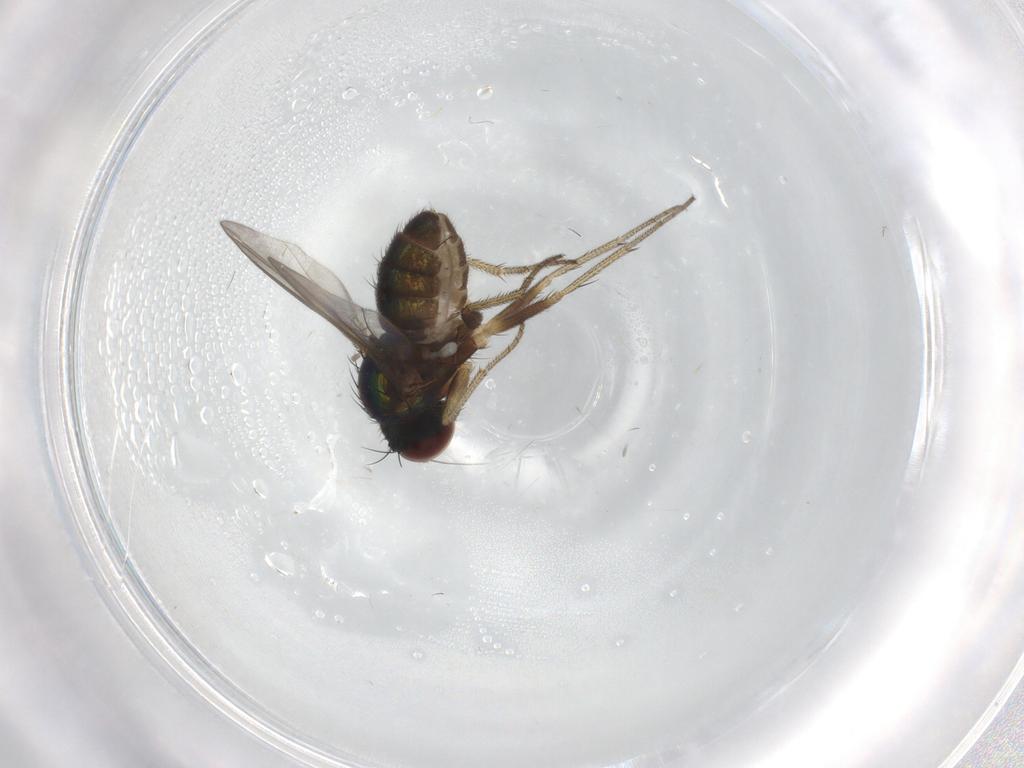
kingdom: Animalia
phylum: Arthropoda
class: Insecta
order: Diptera
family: Dolichopodidae
